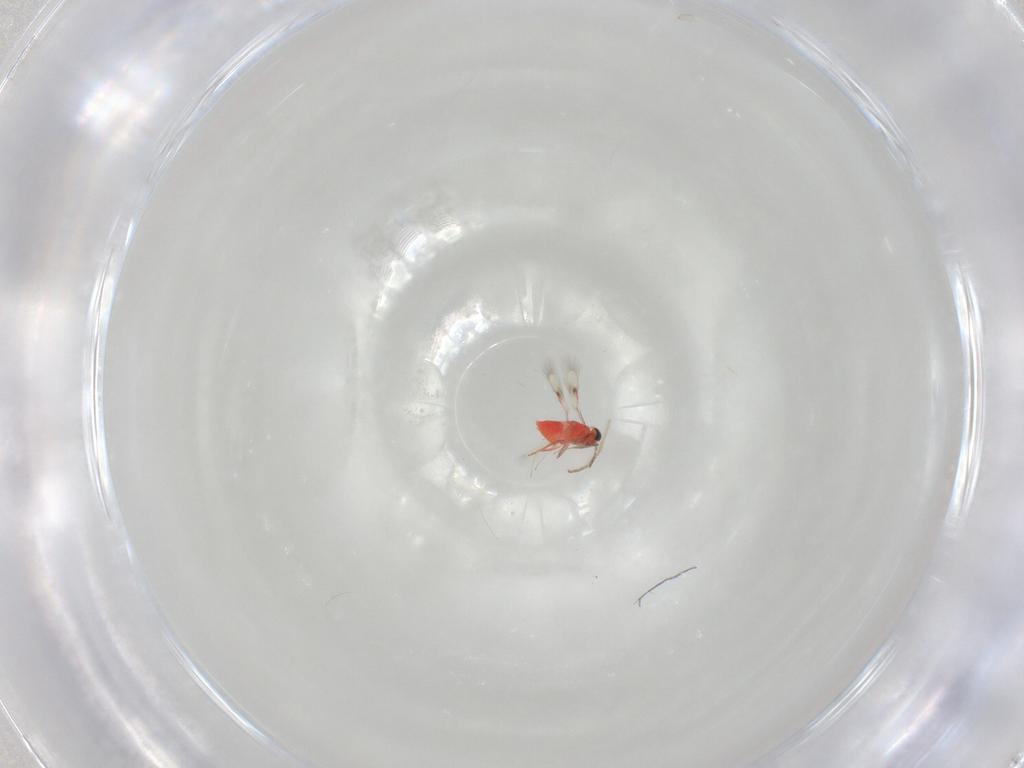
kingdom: Animalia
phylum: Arthropoda
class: Insecta
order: Hymenoptera
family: Trichogrammatidae
